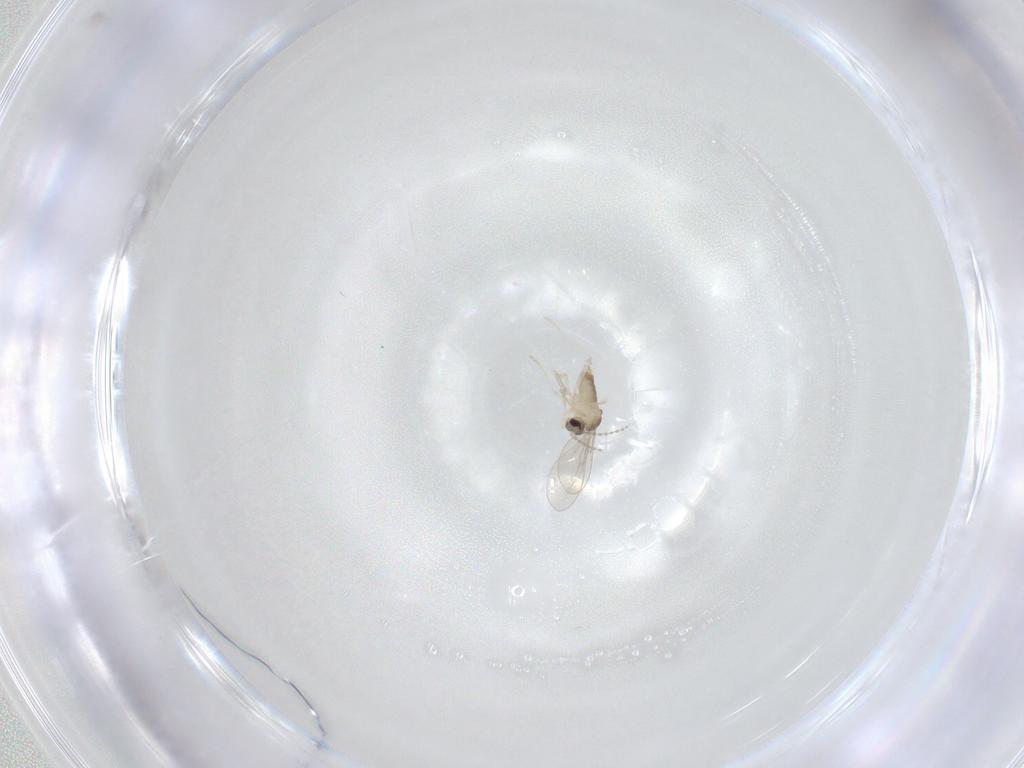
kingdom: Animalia
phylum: Arthropoda
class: Insecta
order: Diptera
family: Cecidomyiidae
